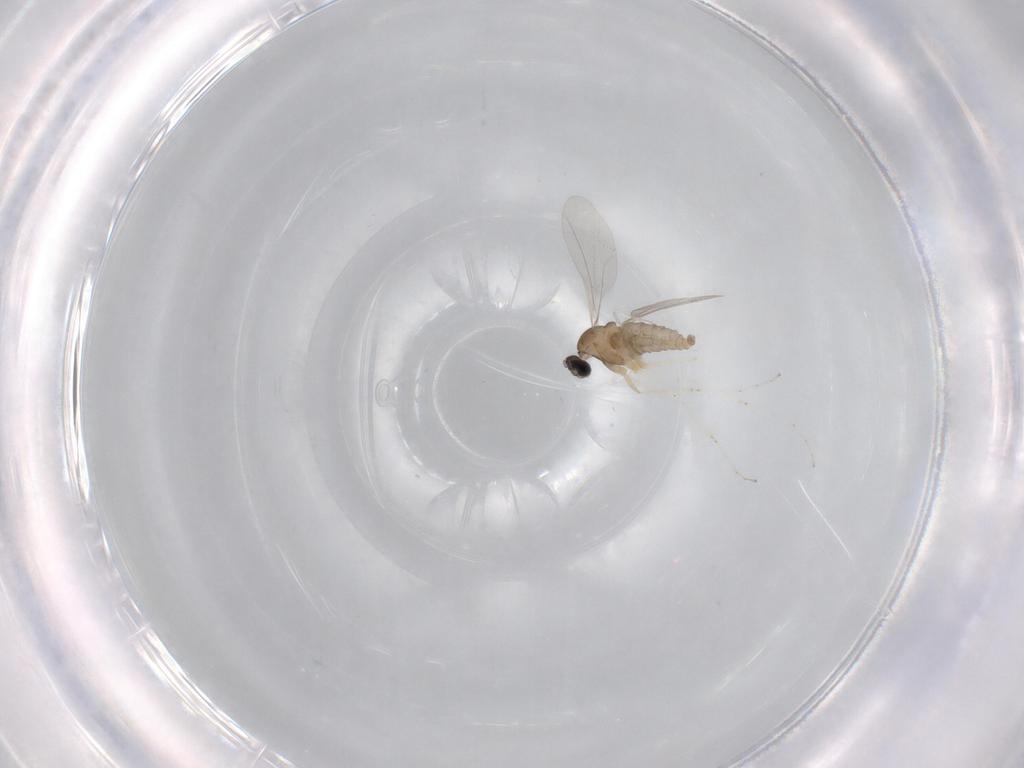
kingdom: Animalia
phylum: Arthropoda
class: Insecta
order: Diptera
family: Cecidomyiidae
